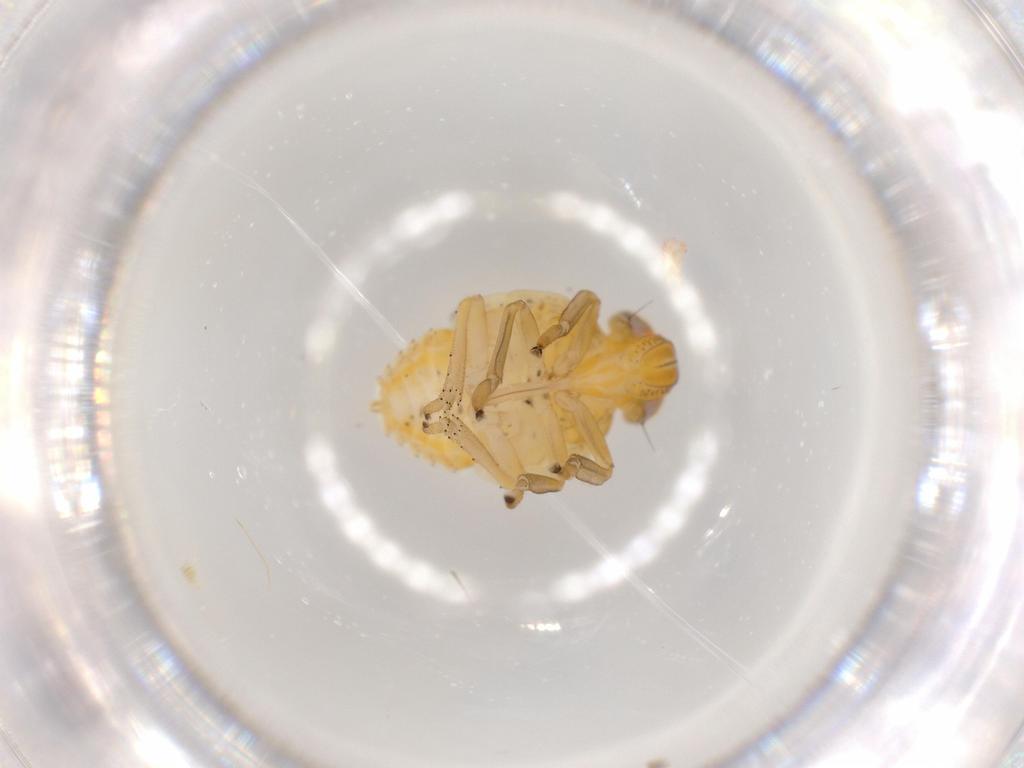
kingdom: Animalia
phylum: Arthropoda
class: Insecta
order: Hemiptera
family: Issidae
